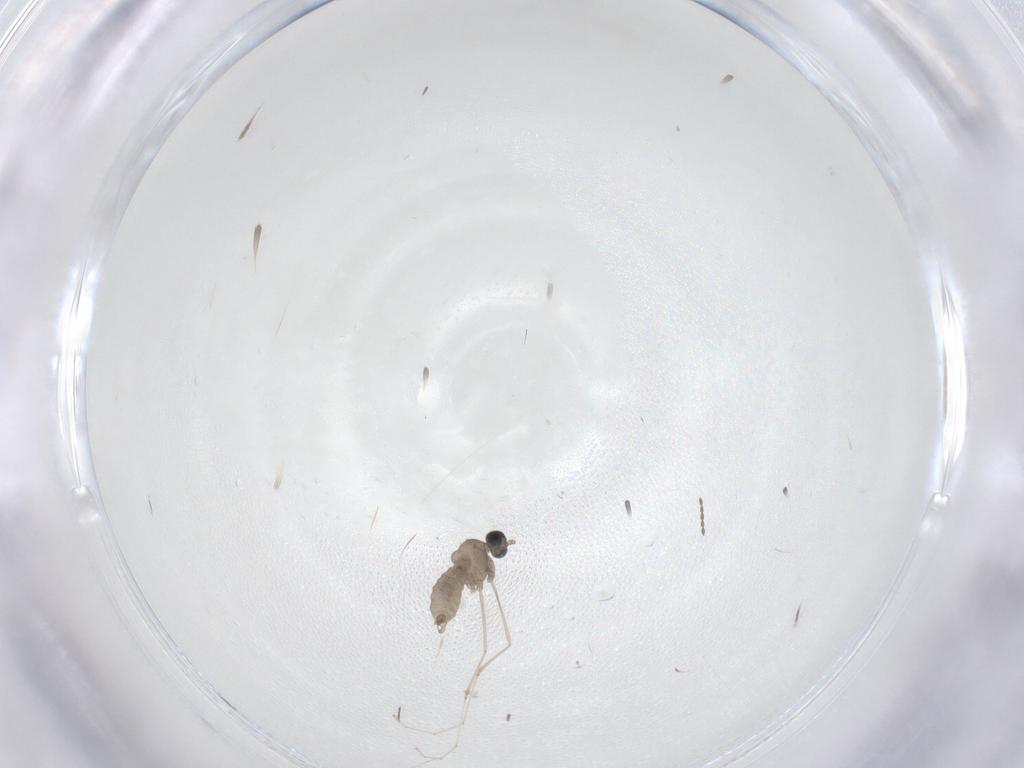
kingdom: Animalia
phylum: Arthropoda
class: Insecta
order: Diptera
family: Cecidomyiidae
